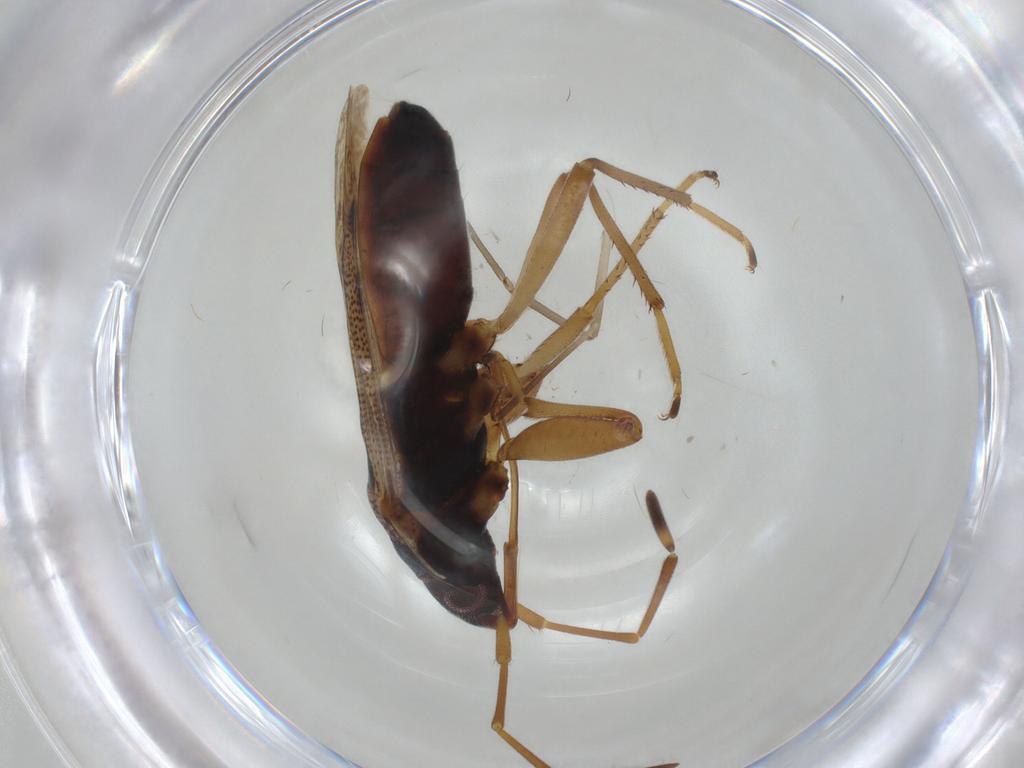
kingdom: Animalia
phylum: Arthropoda
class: Insecta
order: Hemiptera
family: Rhyparochromidae
